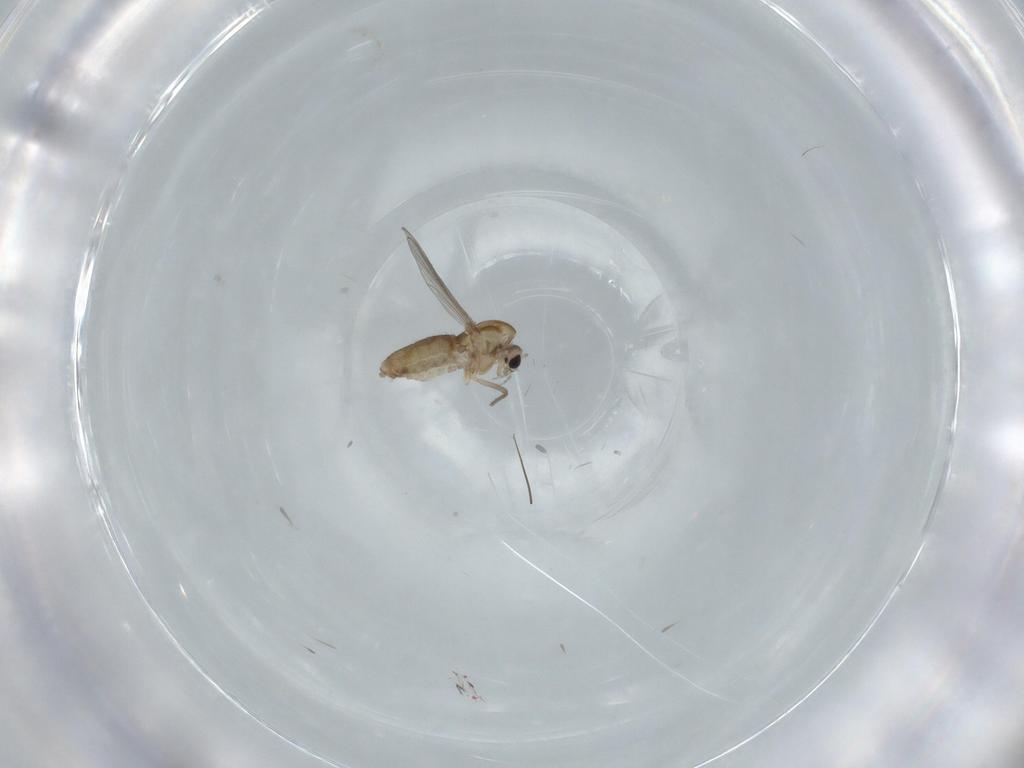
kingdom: Animalia
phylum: Arthropoda
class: Insecta
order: Diptera
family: Chironomidae
